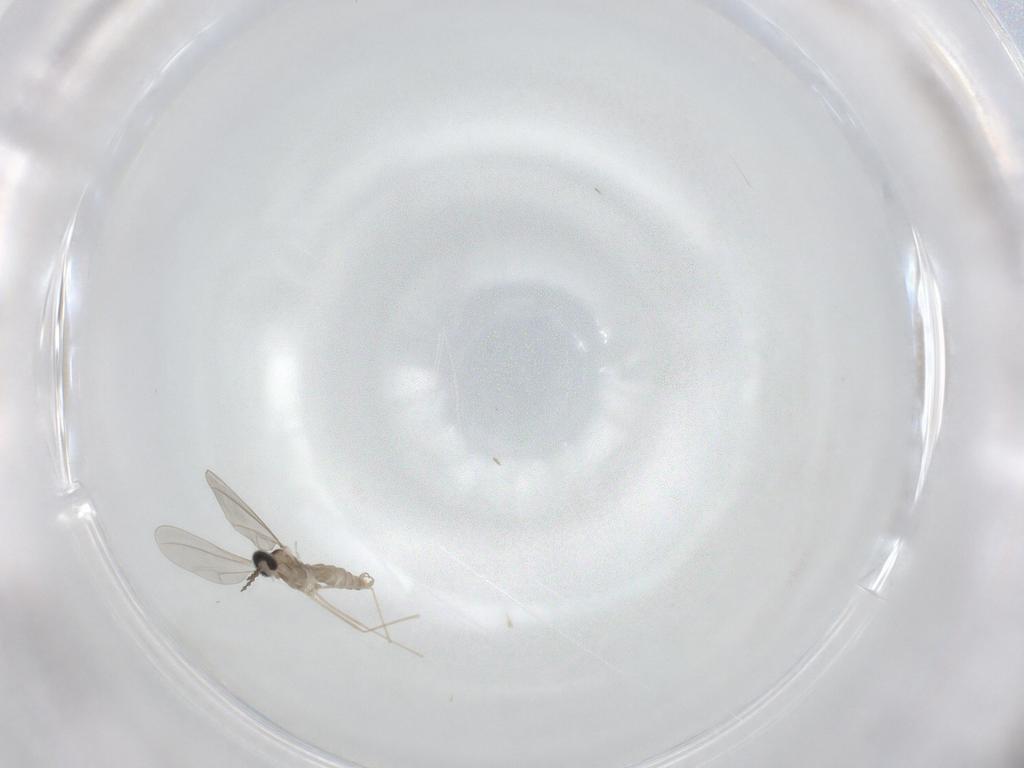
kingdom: Animalia
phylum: Arthropoda
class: Insecta
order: Diptera
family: Cecidomyiidae
